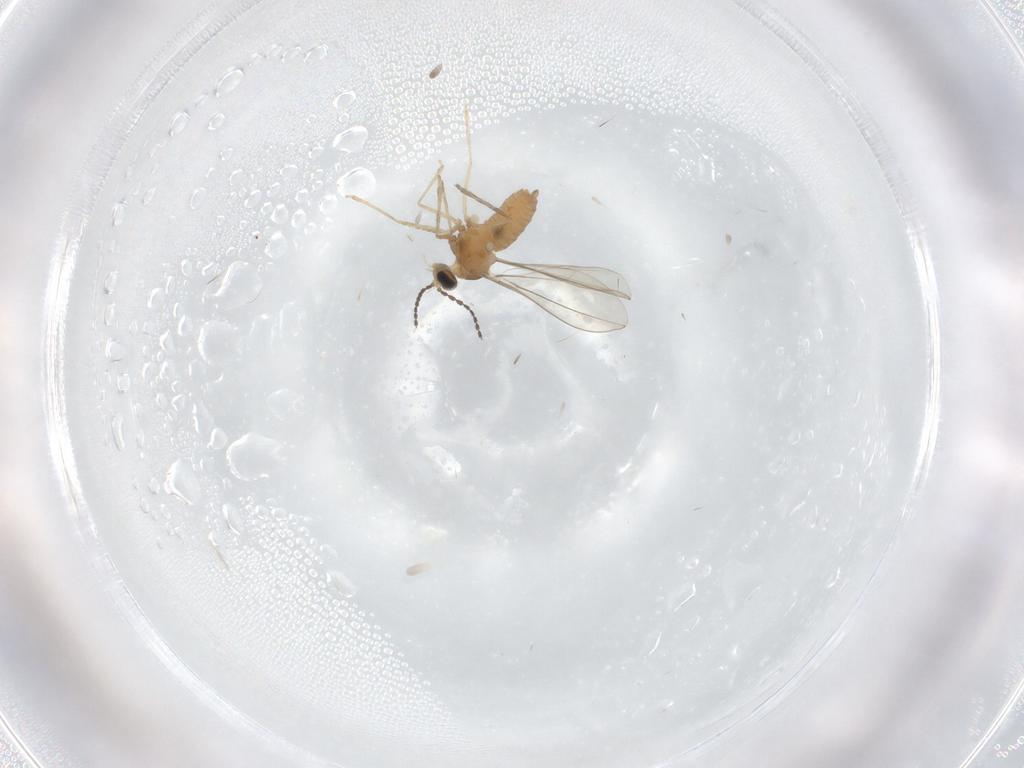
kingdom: Animalia
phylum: Arthropoda
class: Insecta
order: Diptera
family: Cecidomyiidae
